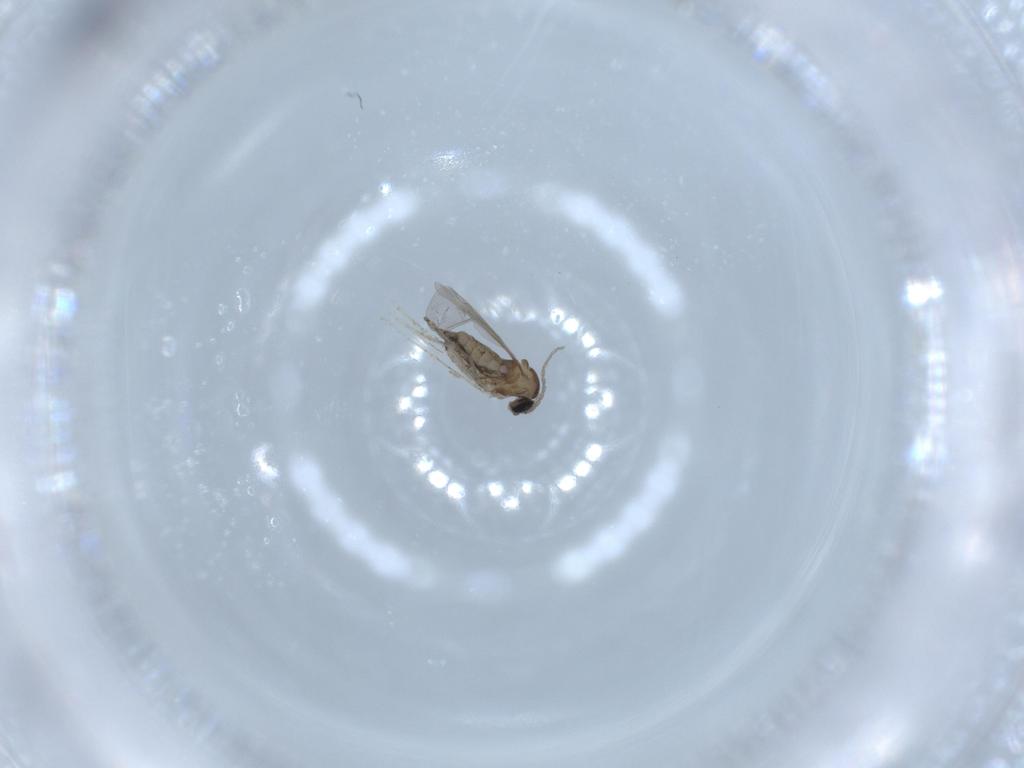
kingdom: Animalia
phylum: Arthropoda
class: Insecta
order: Diptera
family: Cecidomyiidae
